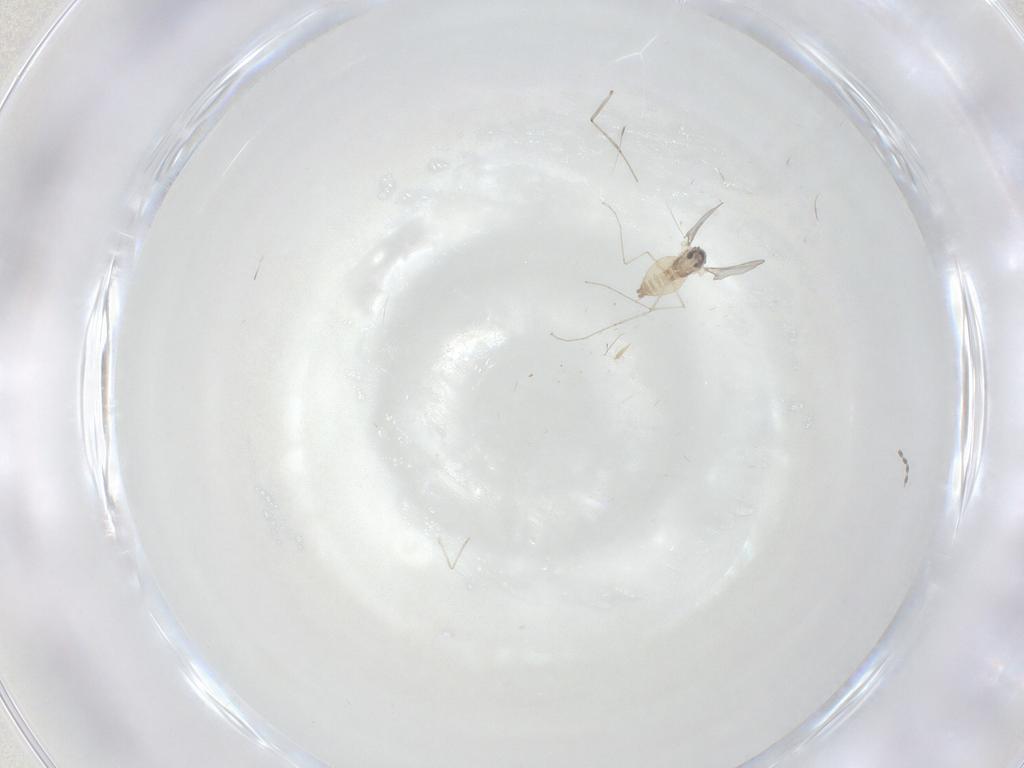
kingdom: Animalia
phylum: Arthropoda
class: Insecta
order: Diptera
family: Cecidomyiidae
